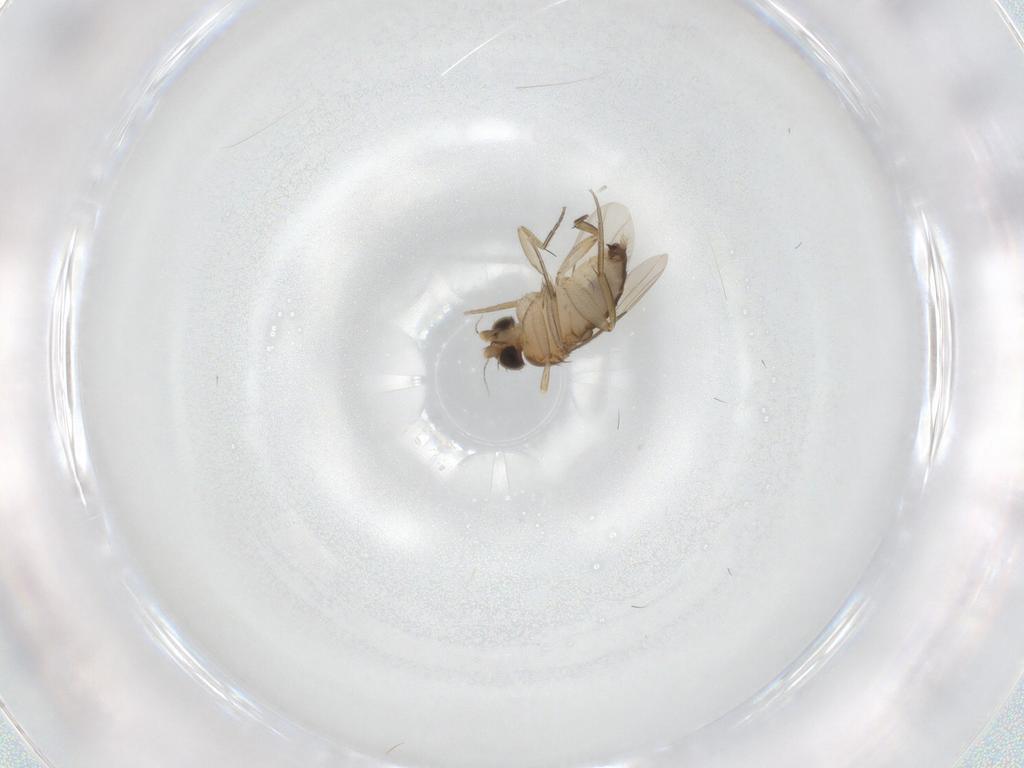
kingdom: Animalia
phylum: Arthropoda
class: Insecta
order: Diptera
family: Phoridae
